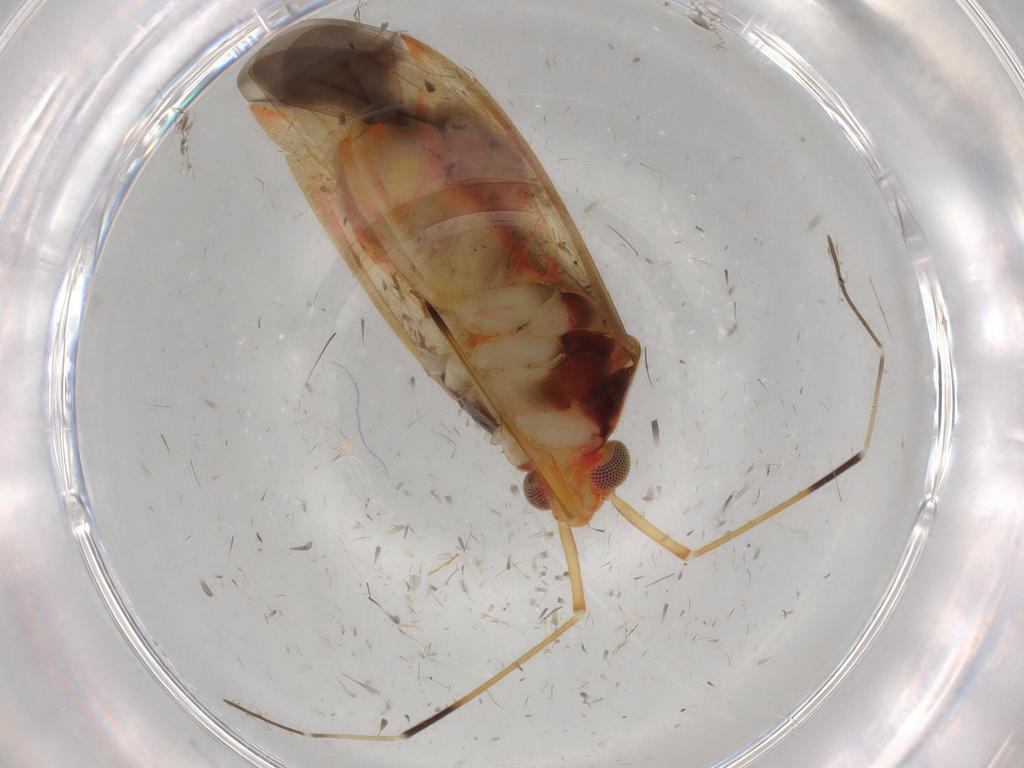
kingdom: Animalia
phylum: Arthropoda
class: Insecta
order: Hemiptera
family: Miridae
